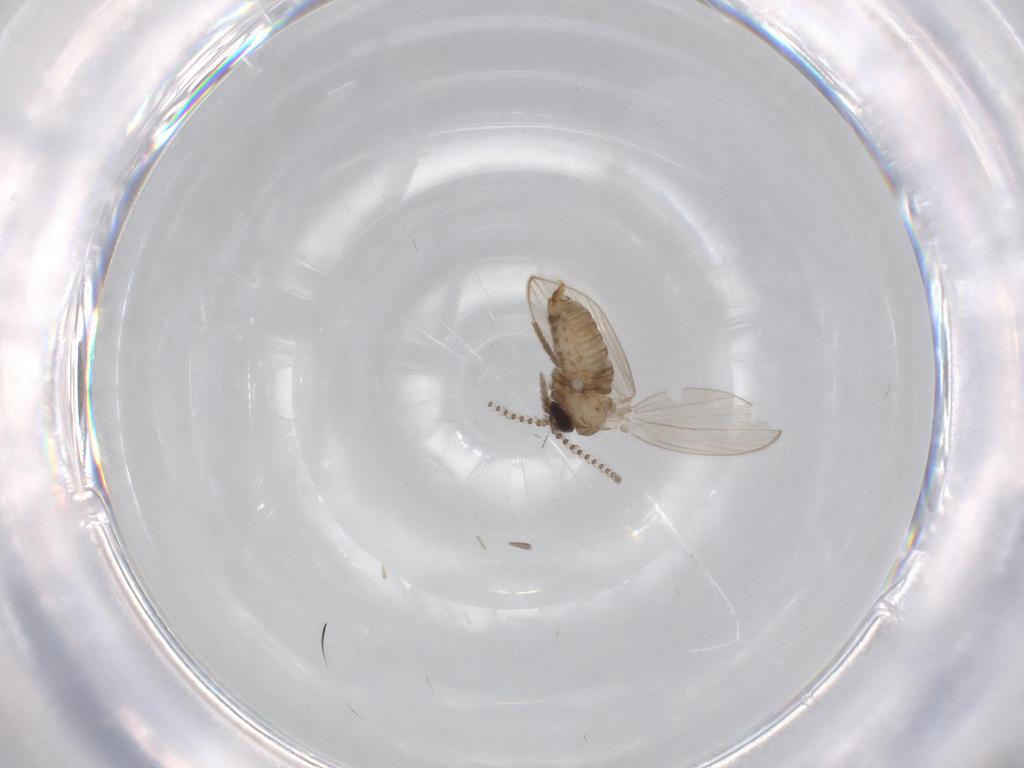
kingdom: Animalia
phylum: Arthropoda
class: Insecta
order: Diptera
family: Psychodidae
